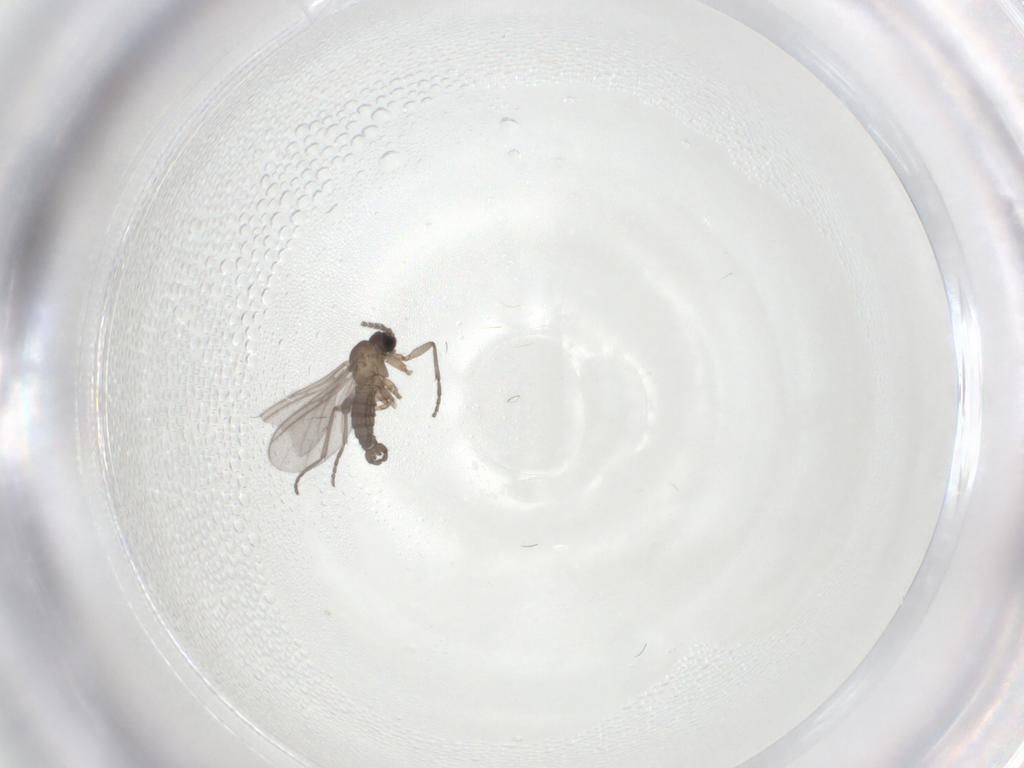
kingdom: Animalia
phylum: Arthropoda
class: Insecta
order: Diptera
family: Sciaridae
